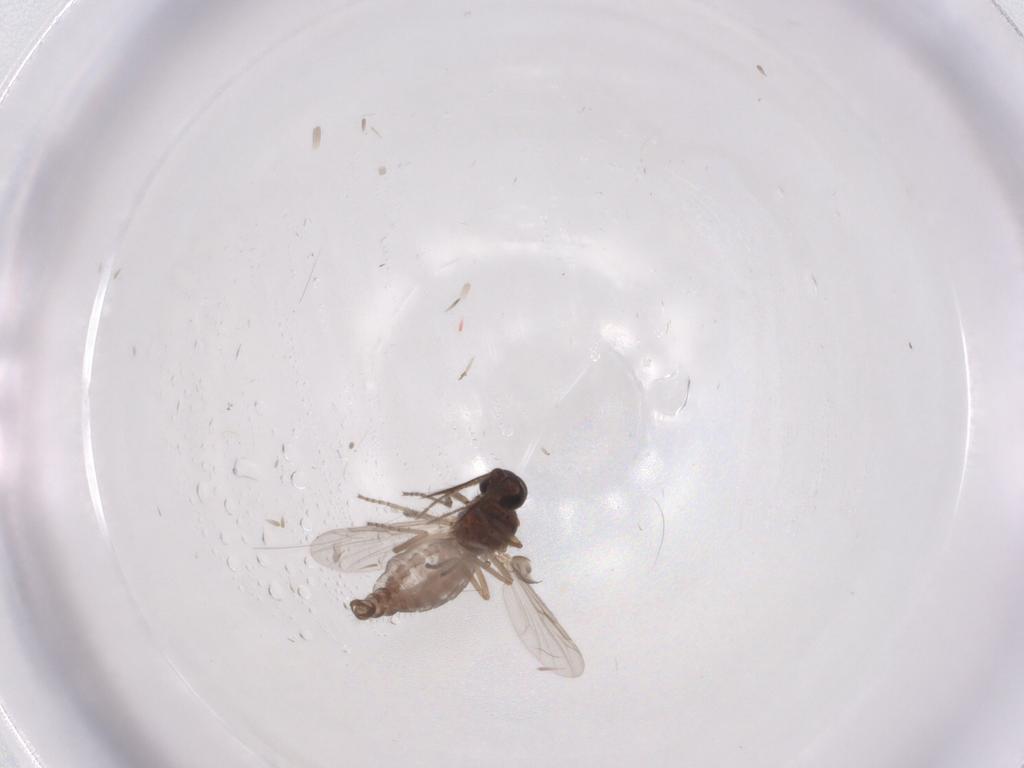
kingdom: Animalia
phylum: Arthropoda
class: Insecta
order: Diptera
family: Ceratopogonidae
